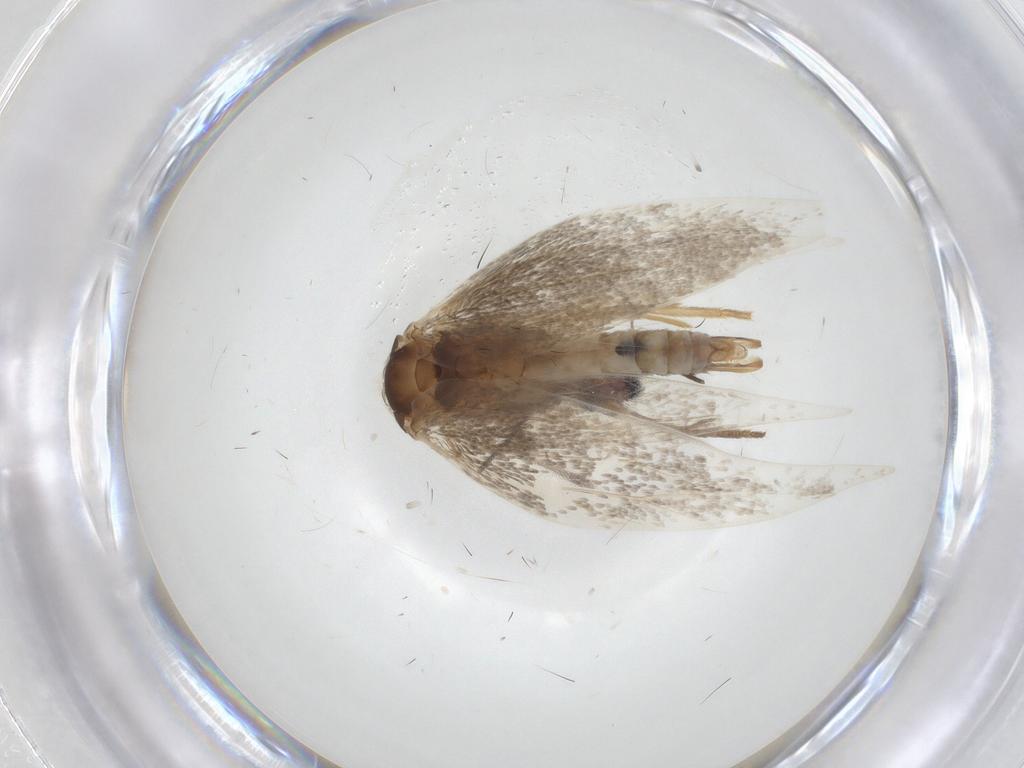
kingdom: Animalia
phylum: Arthropoda
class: Insecta
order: Lepidoptera
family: Elachistidae
